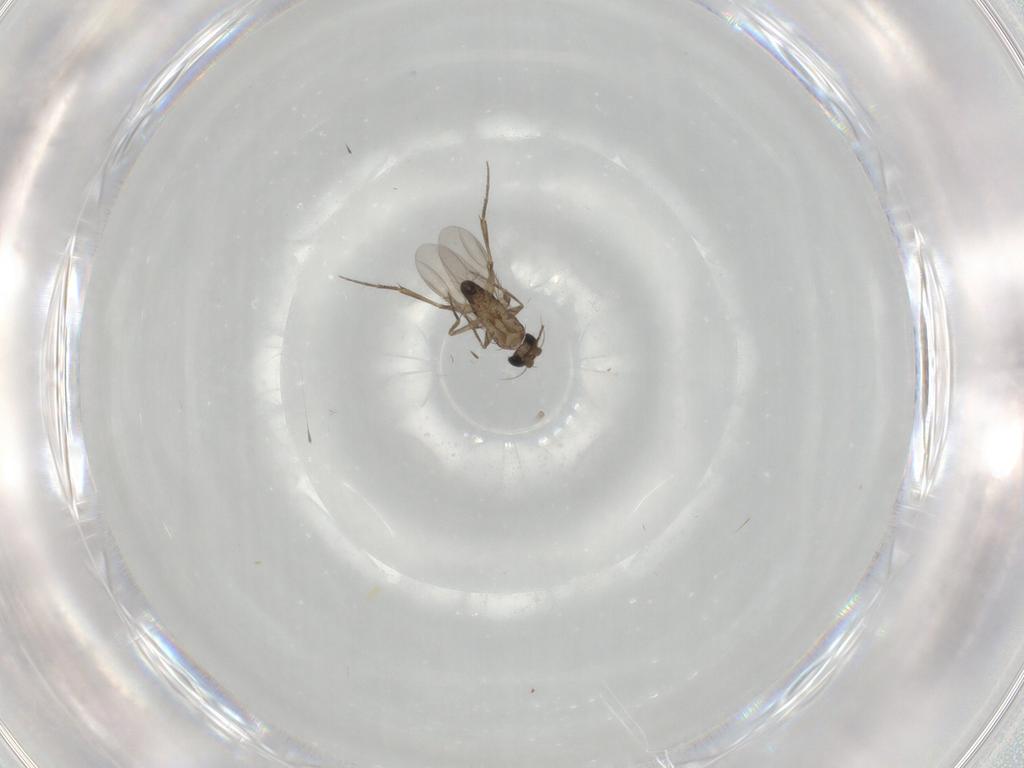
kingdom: Animalia
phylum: Arthropoda
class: Insecta
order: Diptera
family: Phoridae
